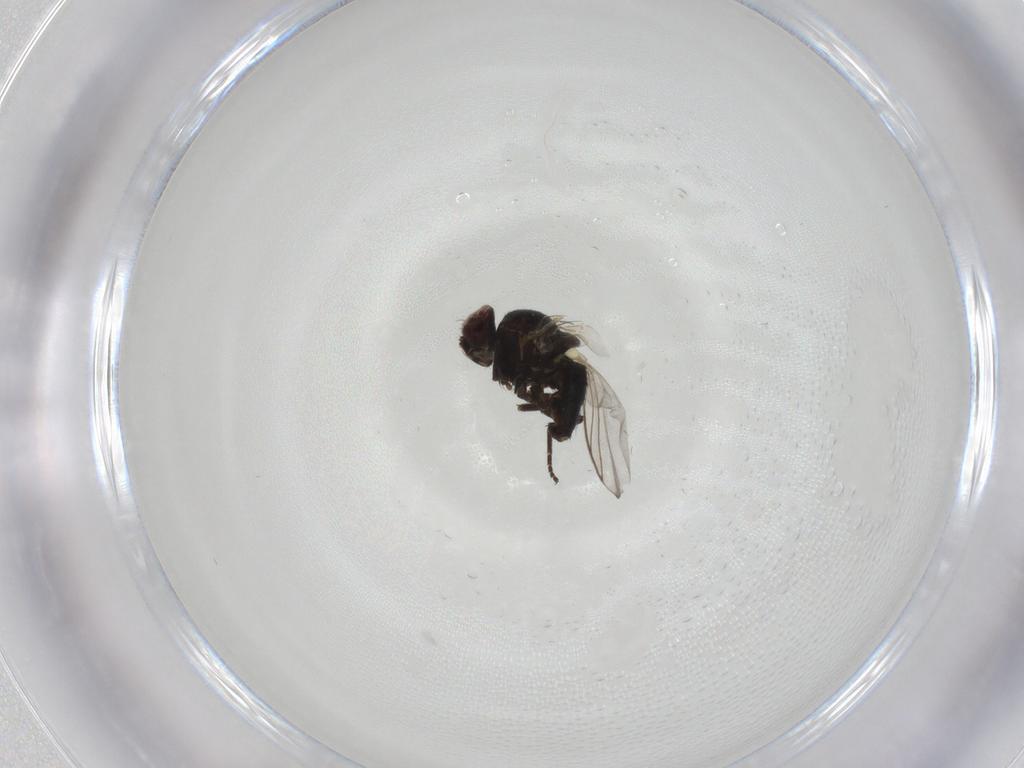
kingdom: Animalia
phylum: Arthropoda
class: Insecta
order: Diptera
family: Agromyzidae
